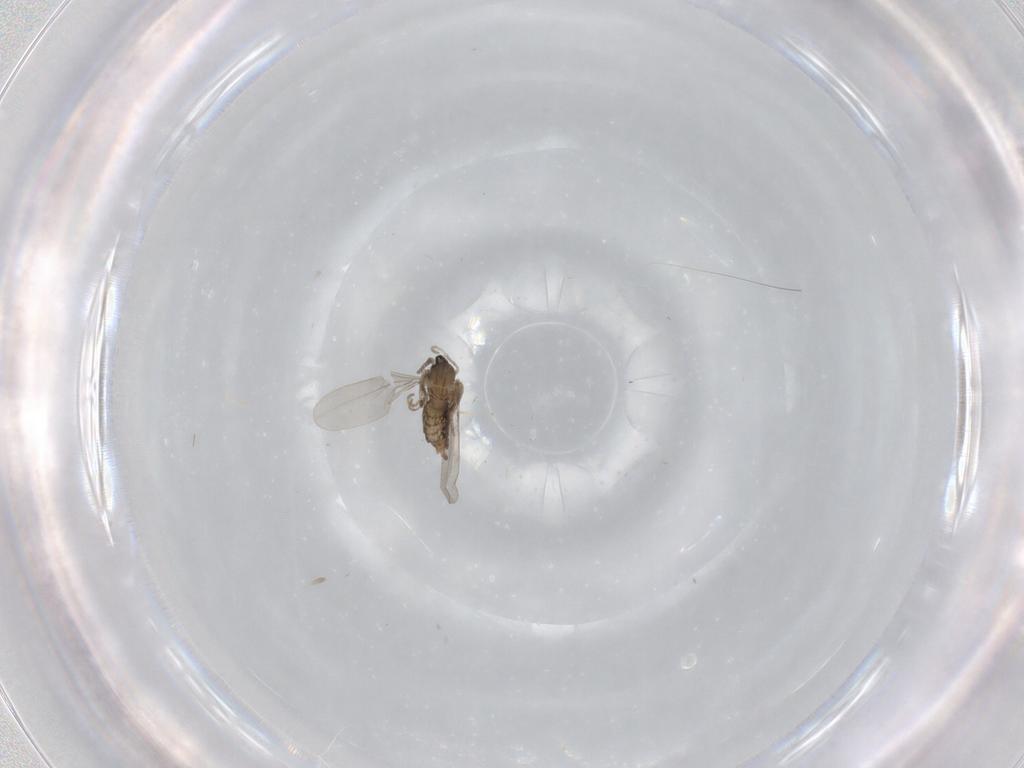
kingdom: Animalia
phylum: Arthropoda
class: Insecta
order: Diptera
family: Cecidomyiidae
